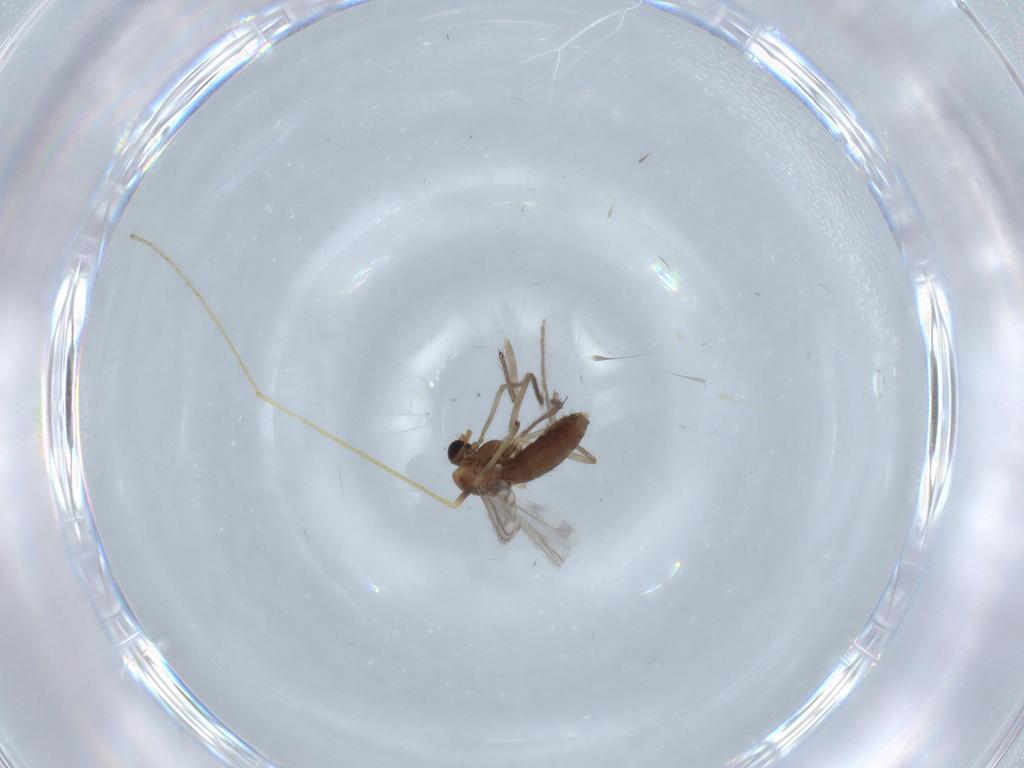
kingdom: Animalia
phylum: Arthropoda
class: Insecta
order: Diptera
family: Chironomidae
